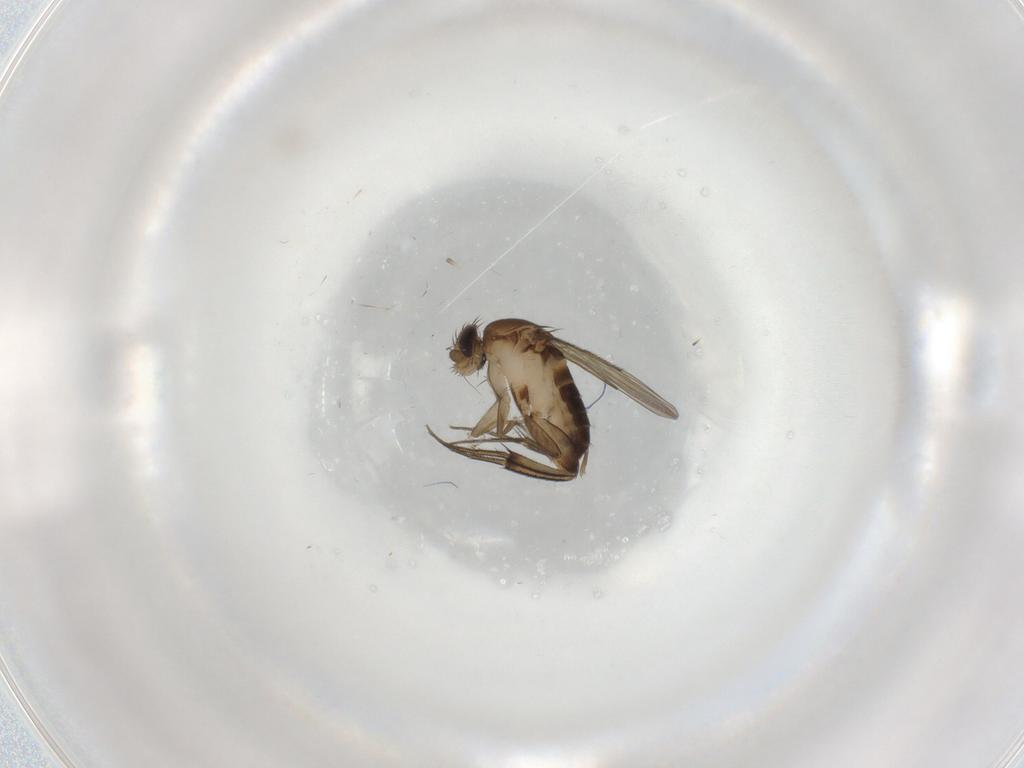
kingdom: Animalia
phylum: Arthropoda
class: Insecta
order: Diptera
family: Phoridae
